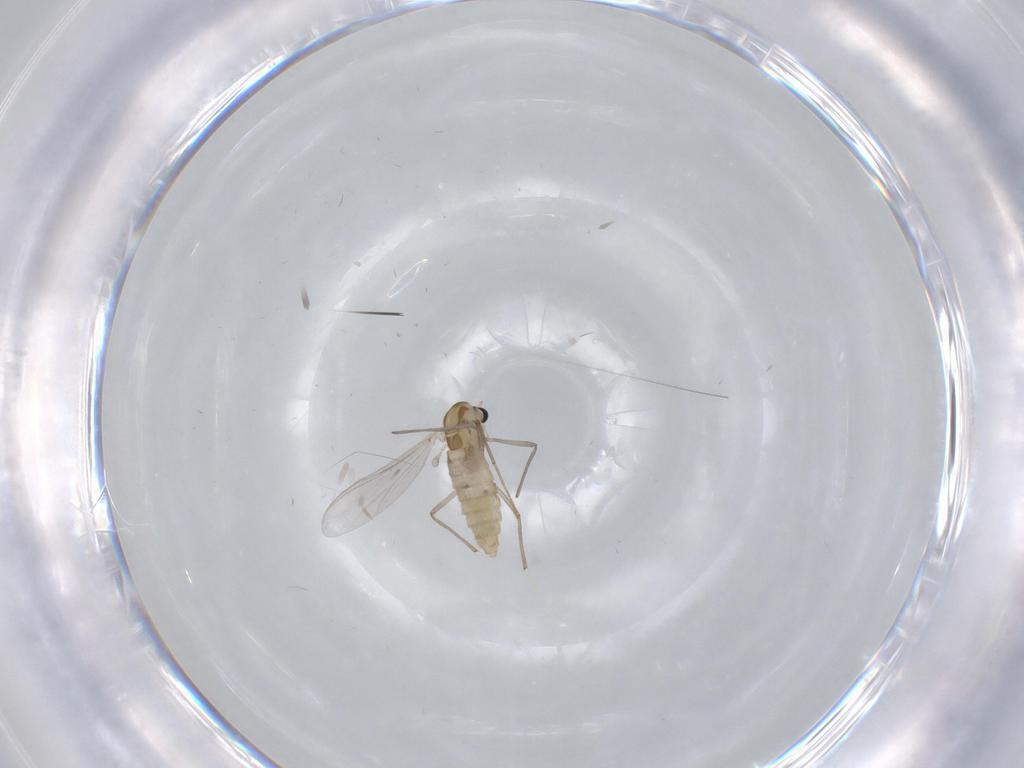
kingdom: Animalia
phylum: Arthropoda
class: Insecta
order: Diptera
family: Chironomidae
